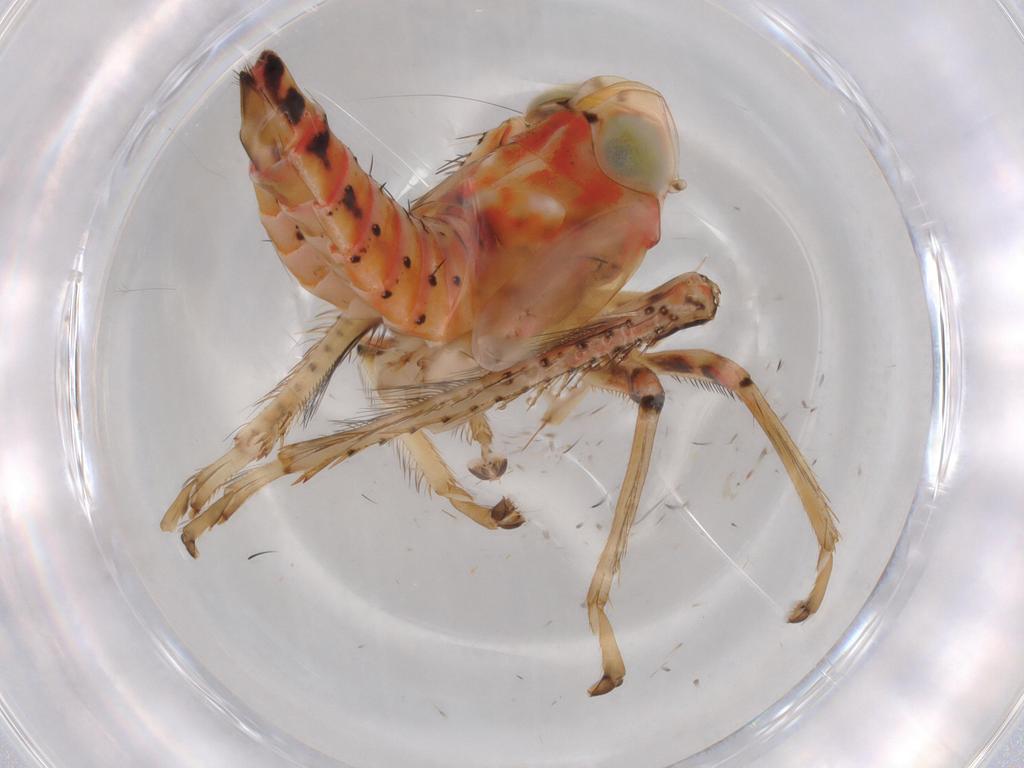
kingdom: Animalia
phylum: Arthropoda
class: Insecta
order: Hemiptera
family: Cicadellidae
